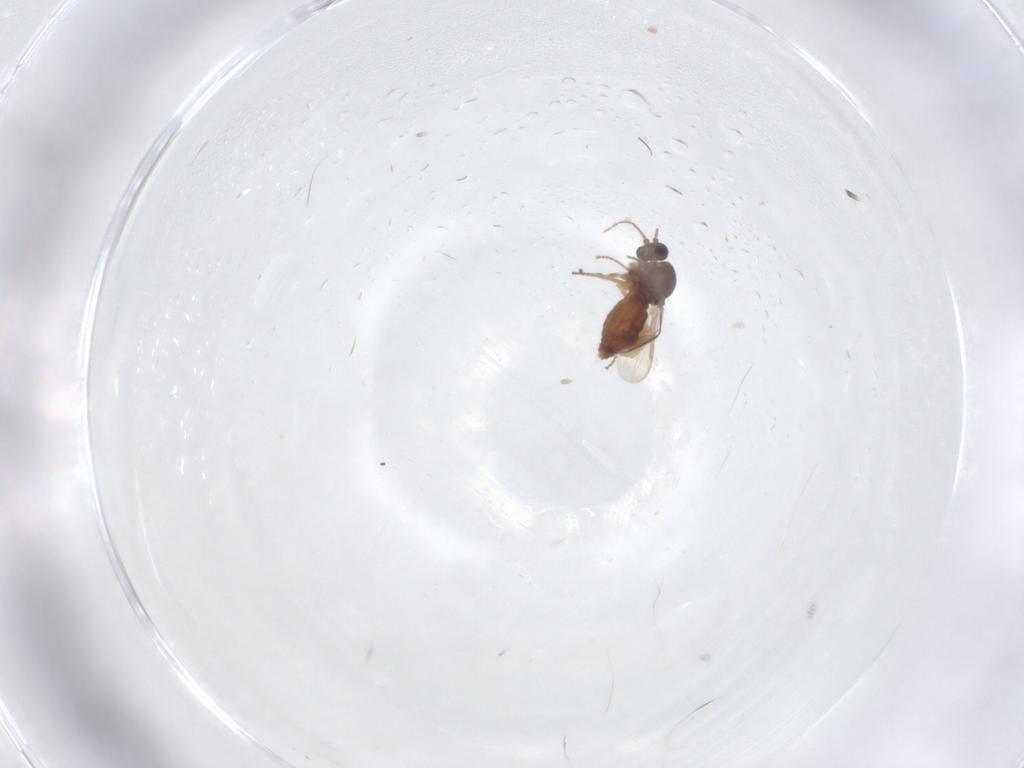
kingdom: Animalia
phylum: Arthropoda
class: Insecta
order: Diptera
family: Ceratopogonidae
